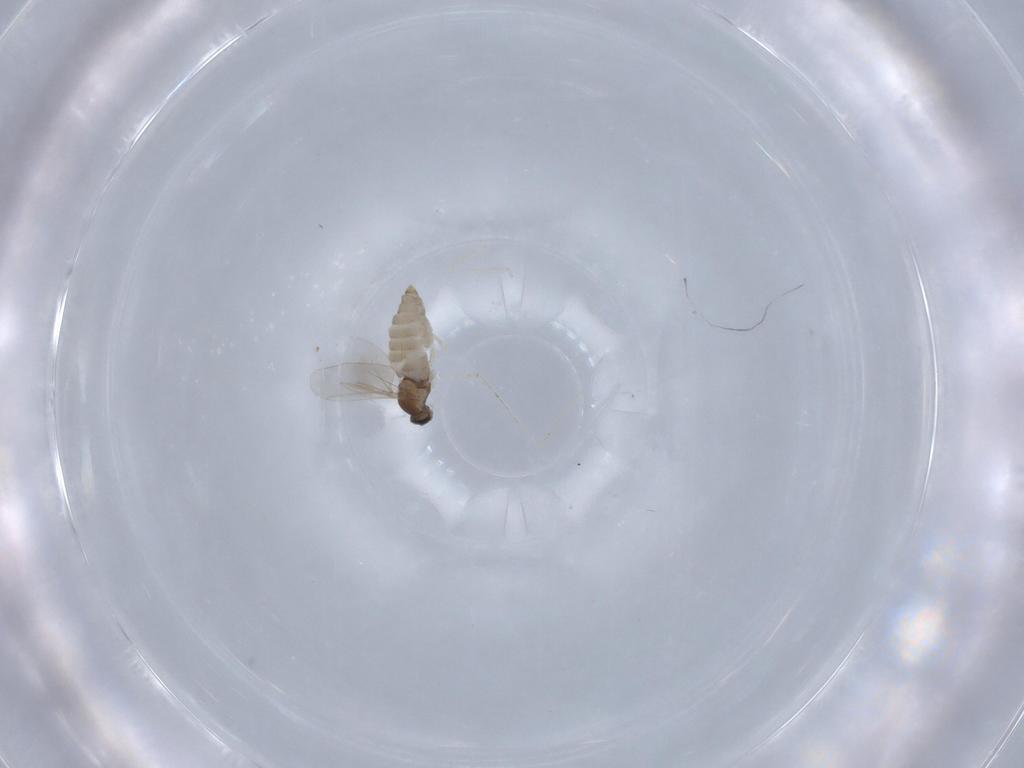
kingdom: Animalia
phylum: Arthropoda
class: Insecta
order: Diptera
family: Cecidomyiidae
